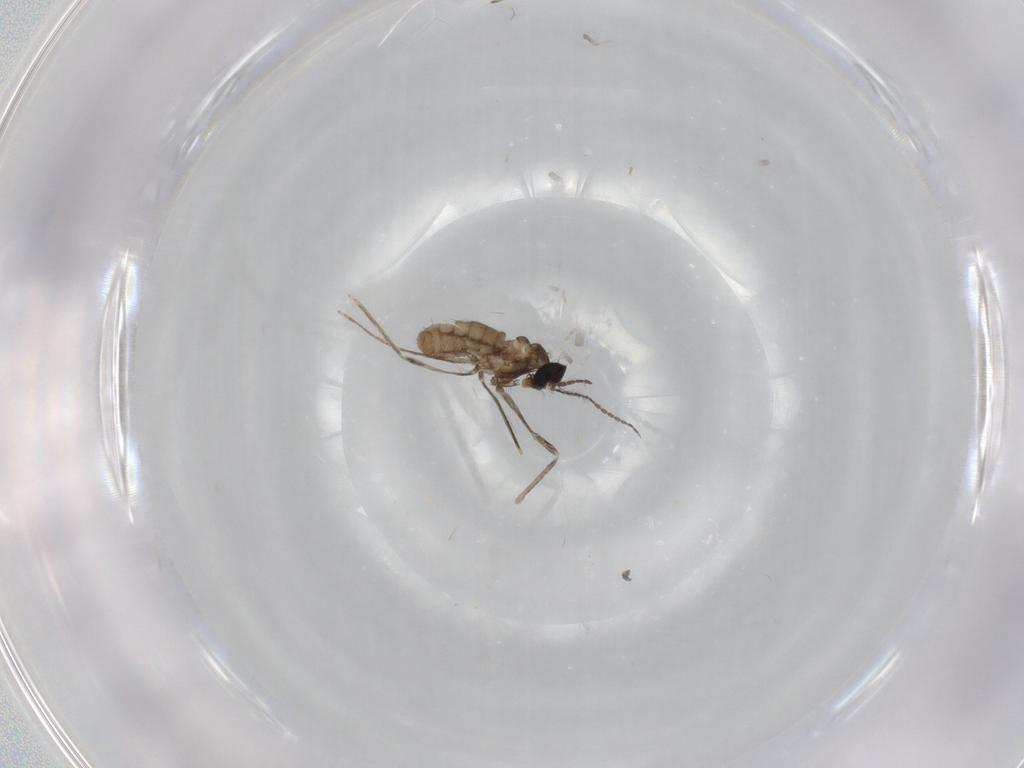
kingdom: Animalia
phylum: Arthropoda
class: Insecta
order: Diptera
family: Cecidomyiidae
